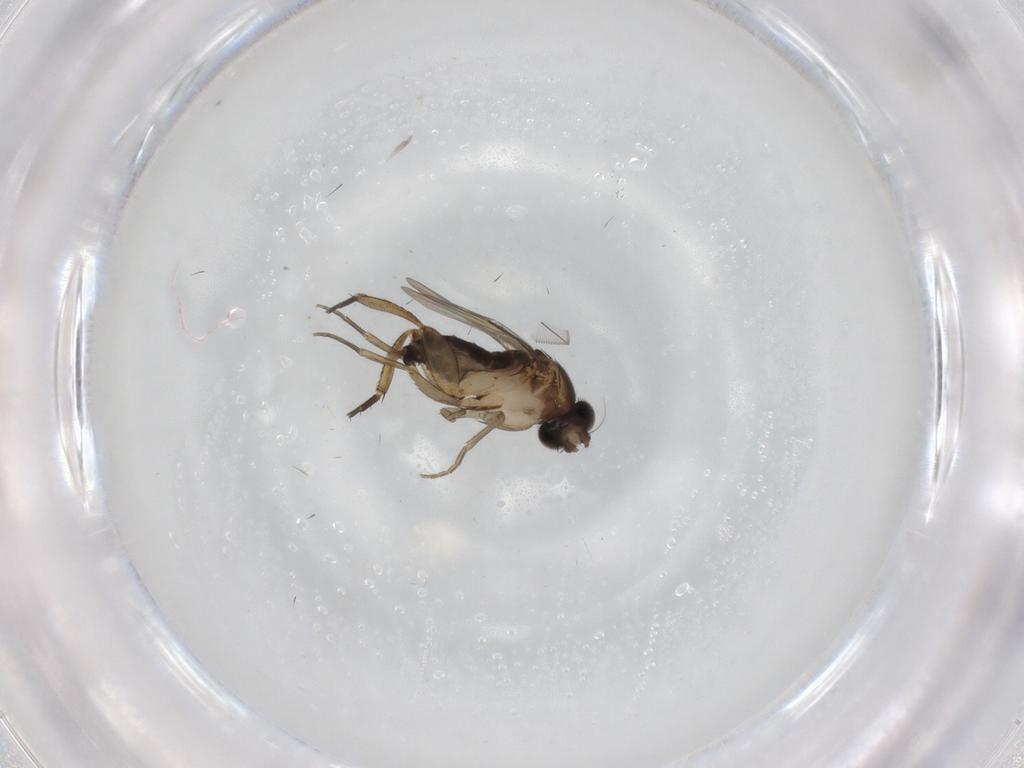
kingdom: Animalia
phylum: Arthropoda
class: Insecta
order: Diptera
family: Phoridae
